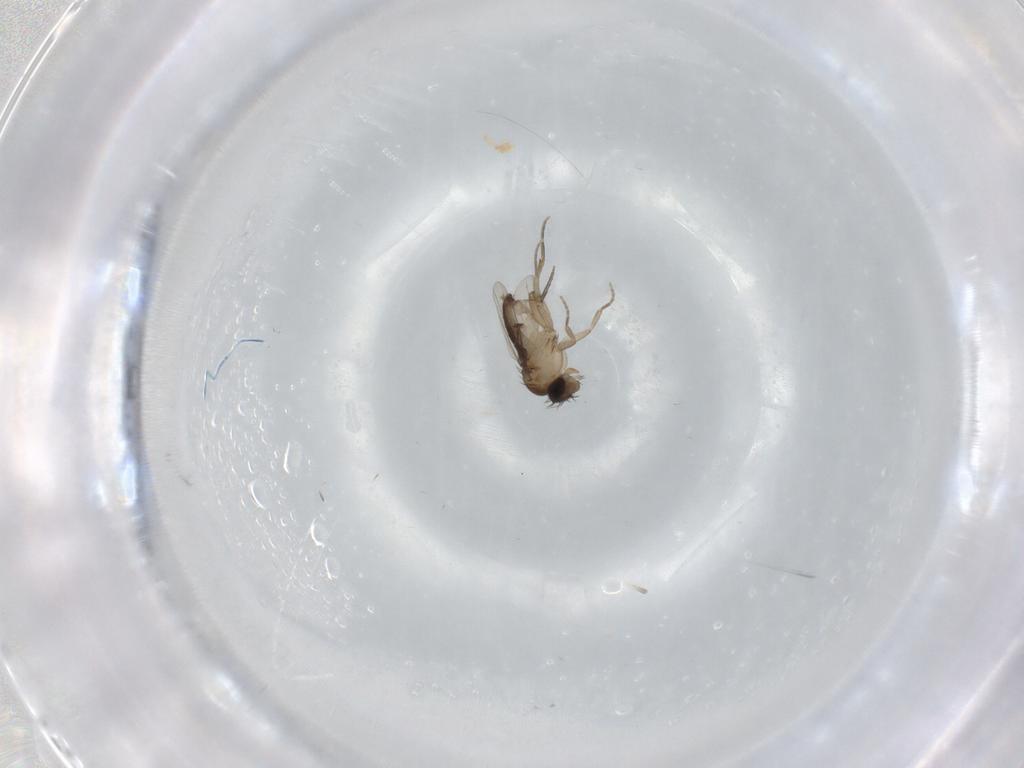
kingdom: Animalia
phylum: Arthropoda
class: Insecta
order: Diptera
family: Phoridae
